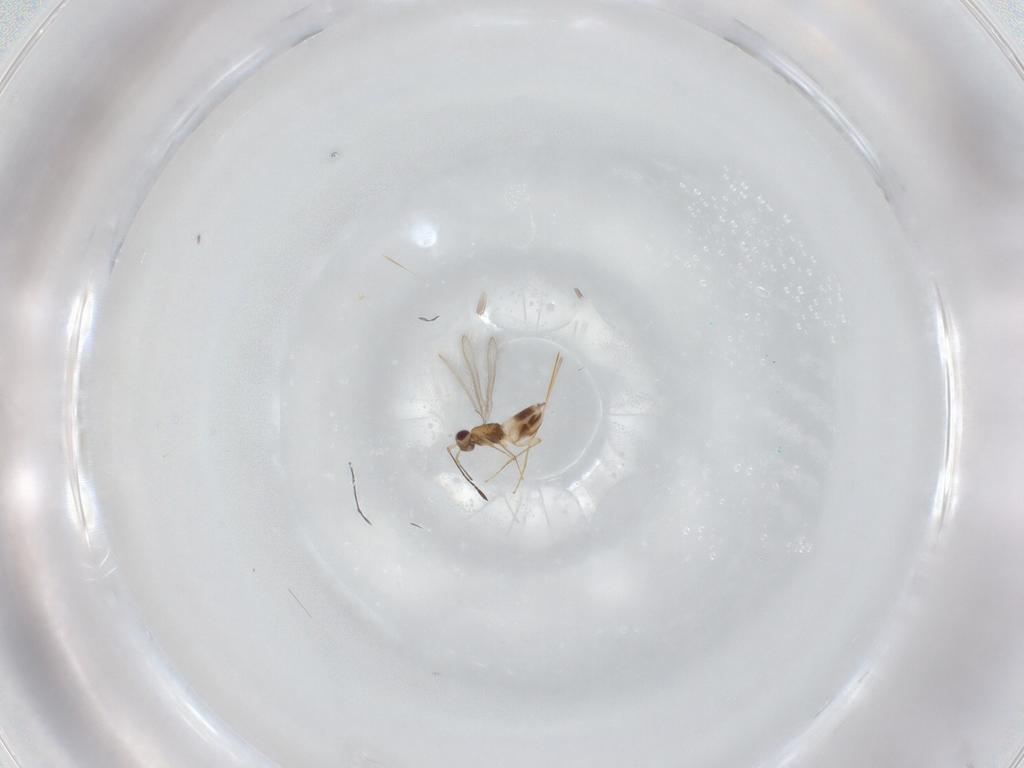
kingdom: Animalia
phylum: Arthropoda
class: Insecta
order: Hymenoptera
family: Mymaridae
